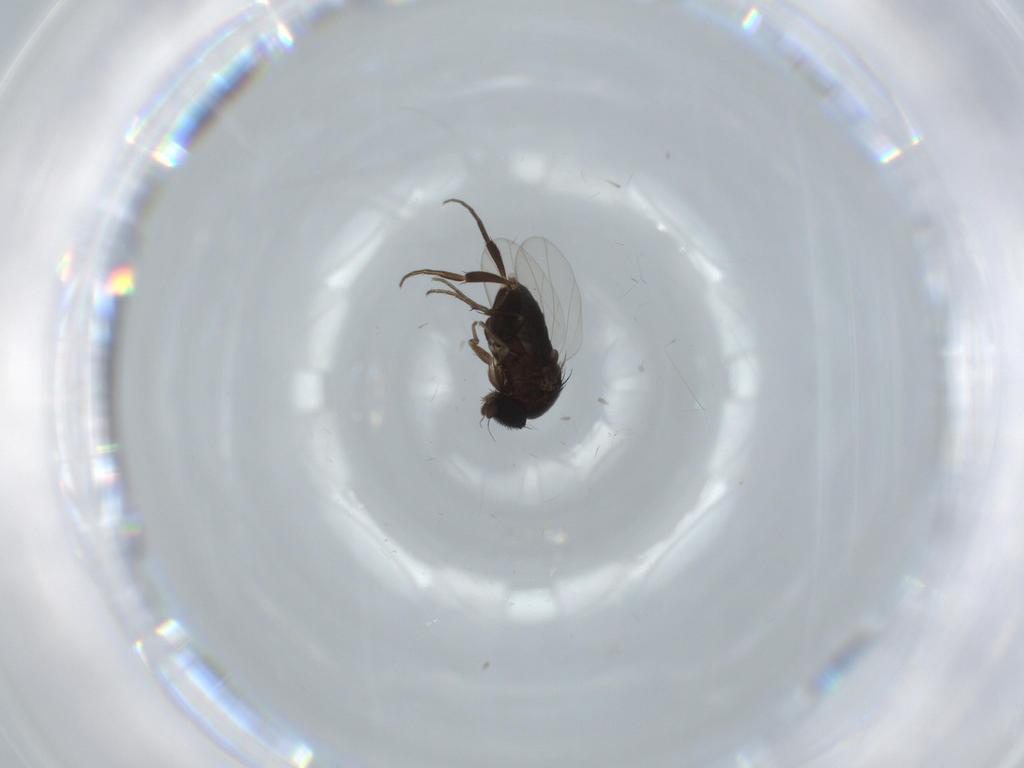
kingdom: Animalia
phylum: Arthropoda
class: Insecta
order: Diptera
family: Phoridae
